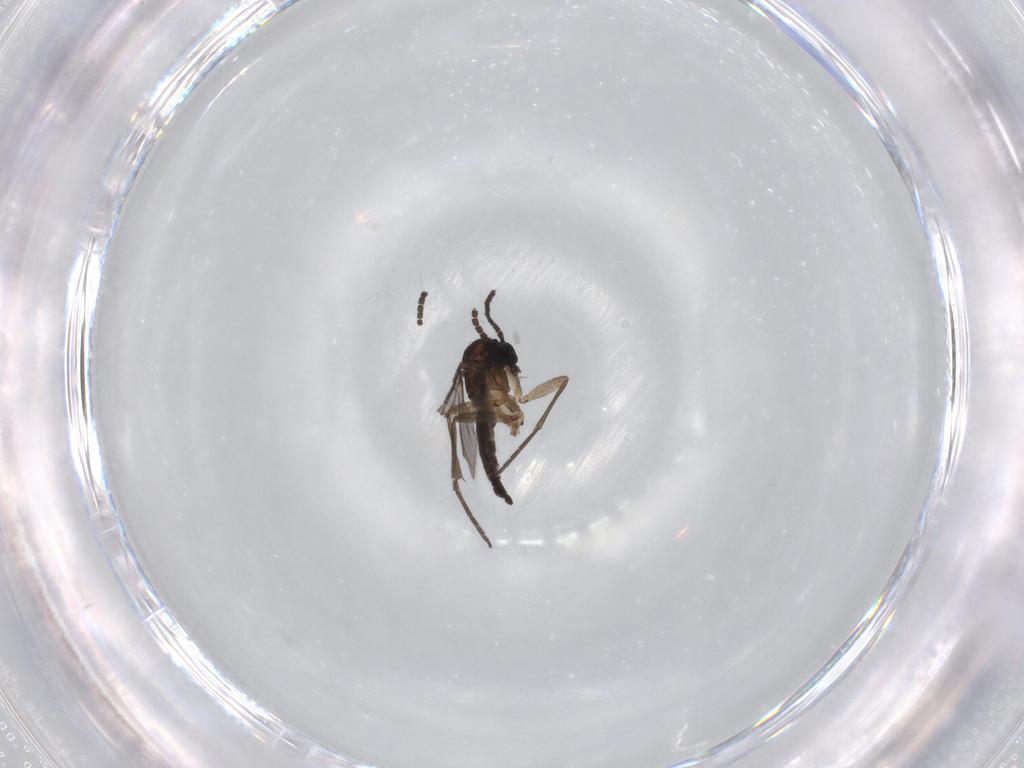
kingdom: Animalia
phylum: Arthropoda
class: Insecta
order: Diptera
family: Sciaridae
